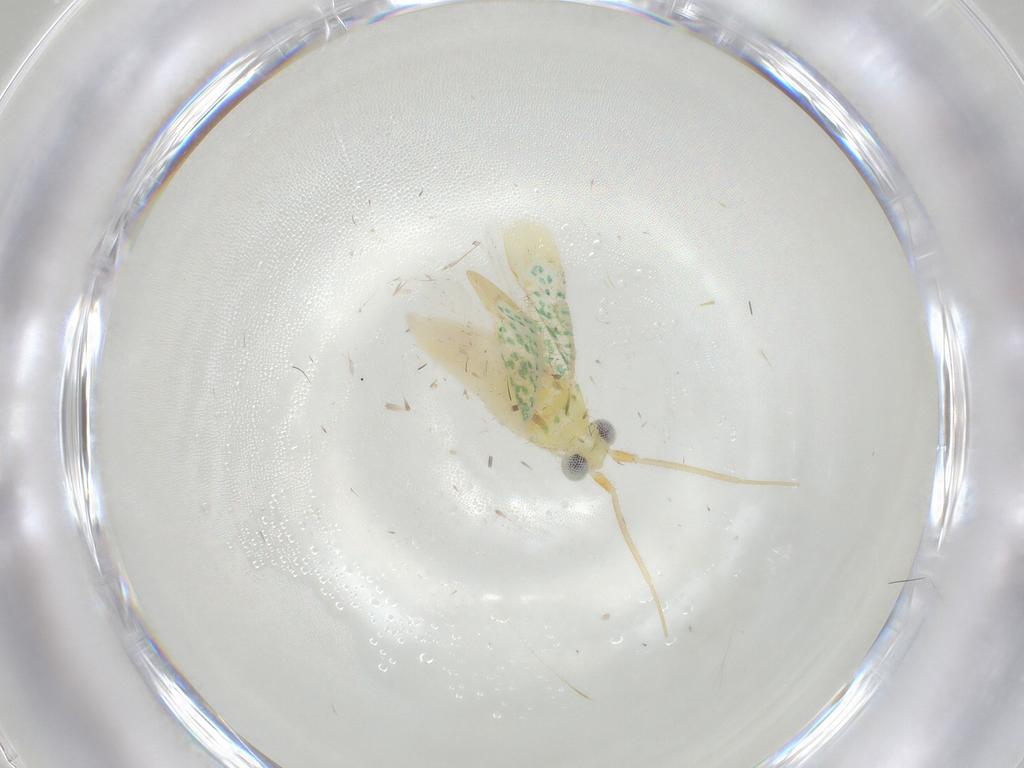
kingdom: Animalia
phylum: Arthropoda
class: Insecta
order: Hemiptera
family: Miridae
